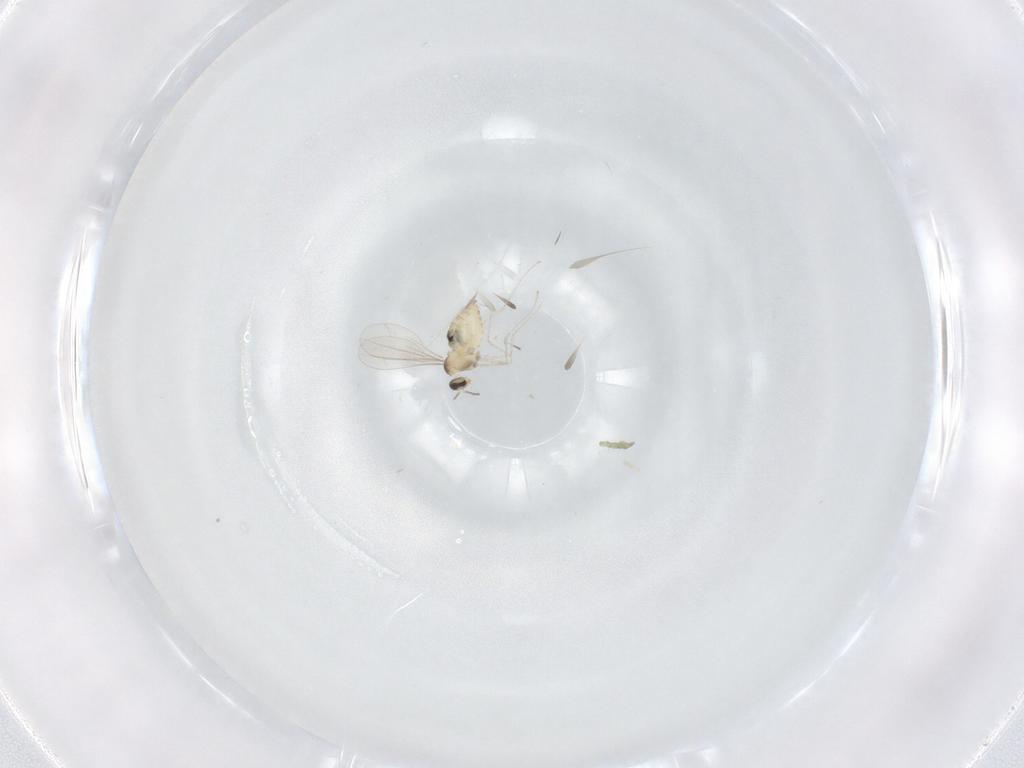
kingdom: Animalia
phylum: Arthropoda
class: Insecta
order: Diptera
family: Cecidomyiidae
